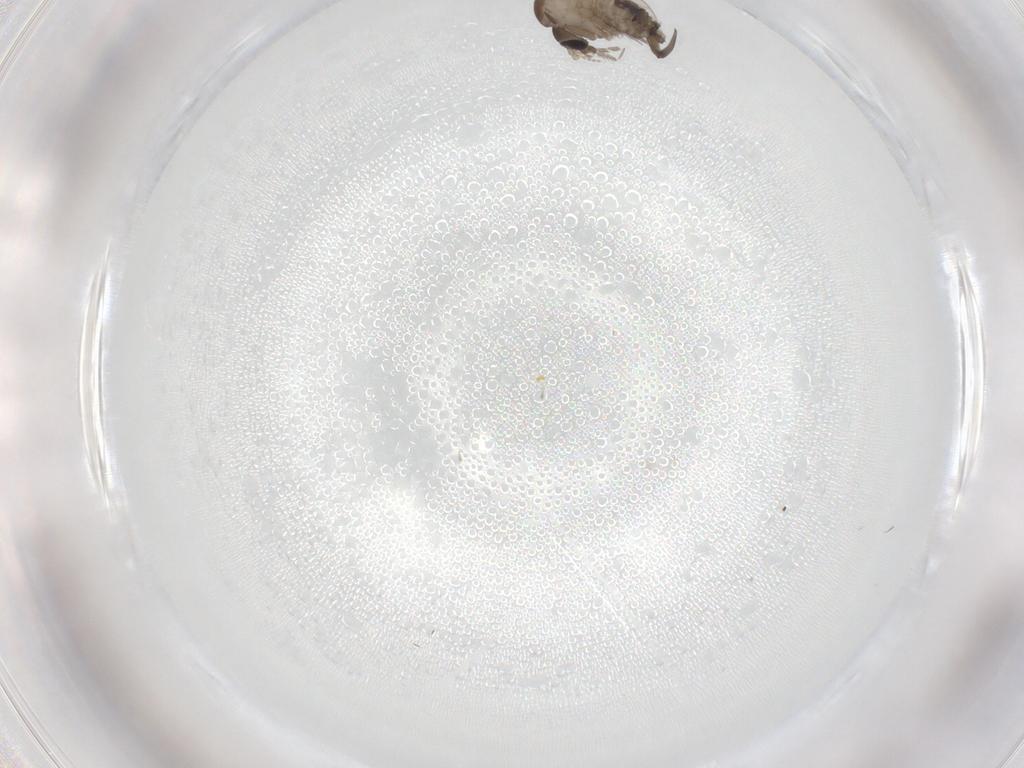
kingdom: Animalia
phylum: Arthropoda
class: Insecta
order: Diptera
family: Psychodidae
